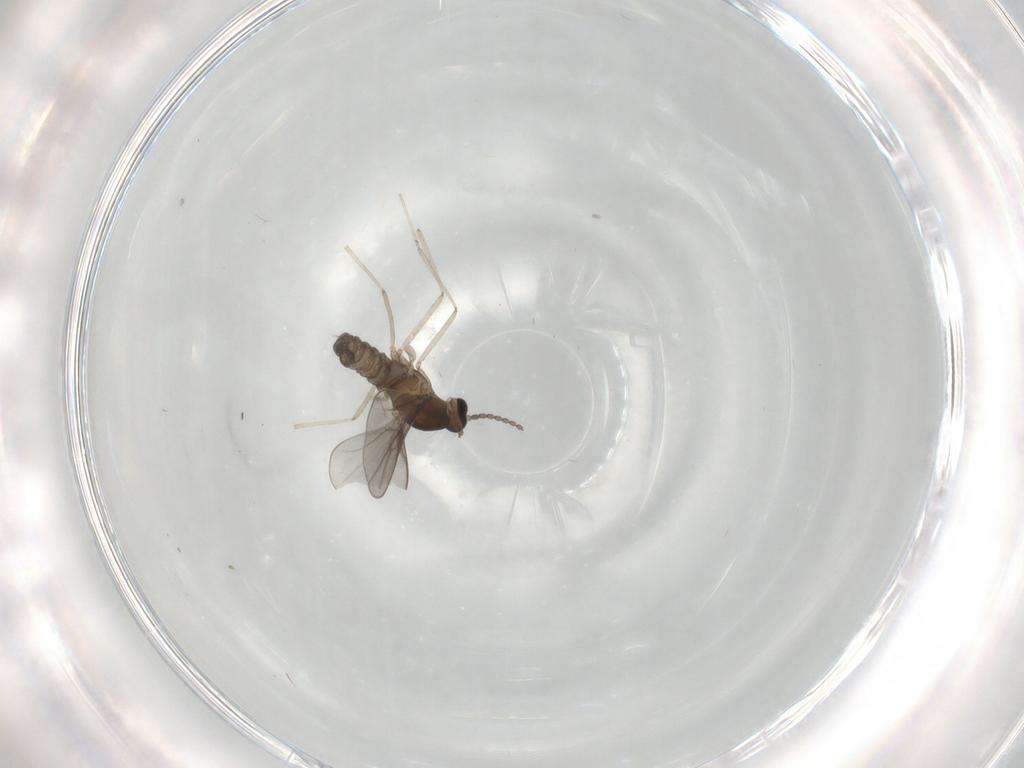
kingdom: Animalia
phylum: Arthropoda
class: Insecta
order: Diptera
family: Cecidomyiidae
